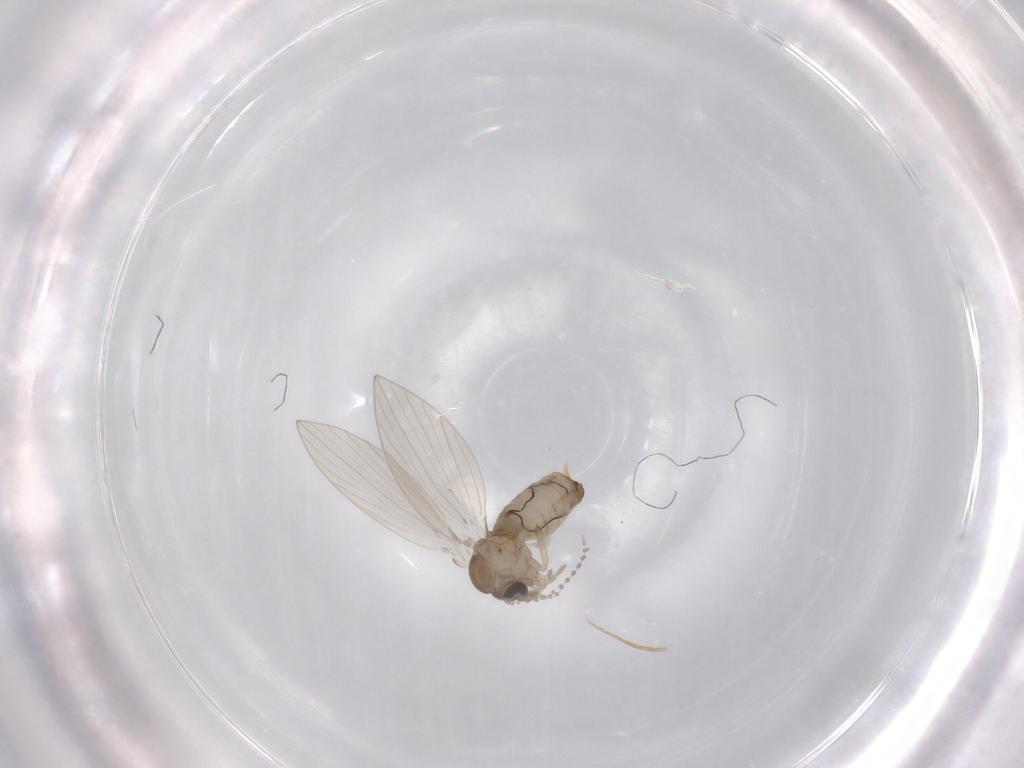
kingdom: Animalia
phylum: Arthropoda
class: Insecta
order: Diptera
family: Psychodidae
